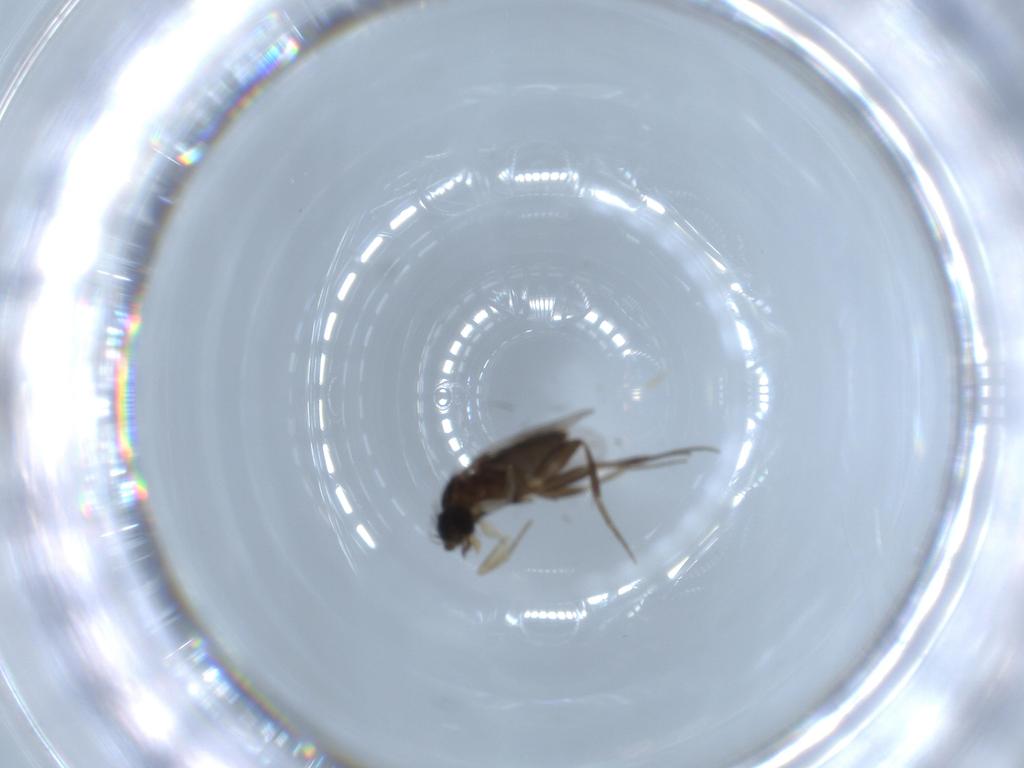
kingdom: Animalia
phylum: Arthropoda
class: Insecta
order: Diptera
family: Phoridae
